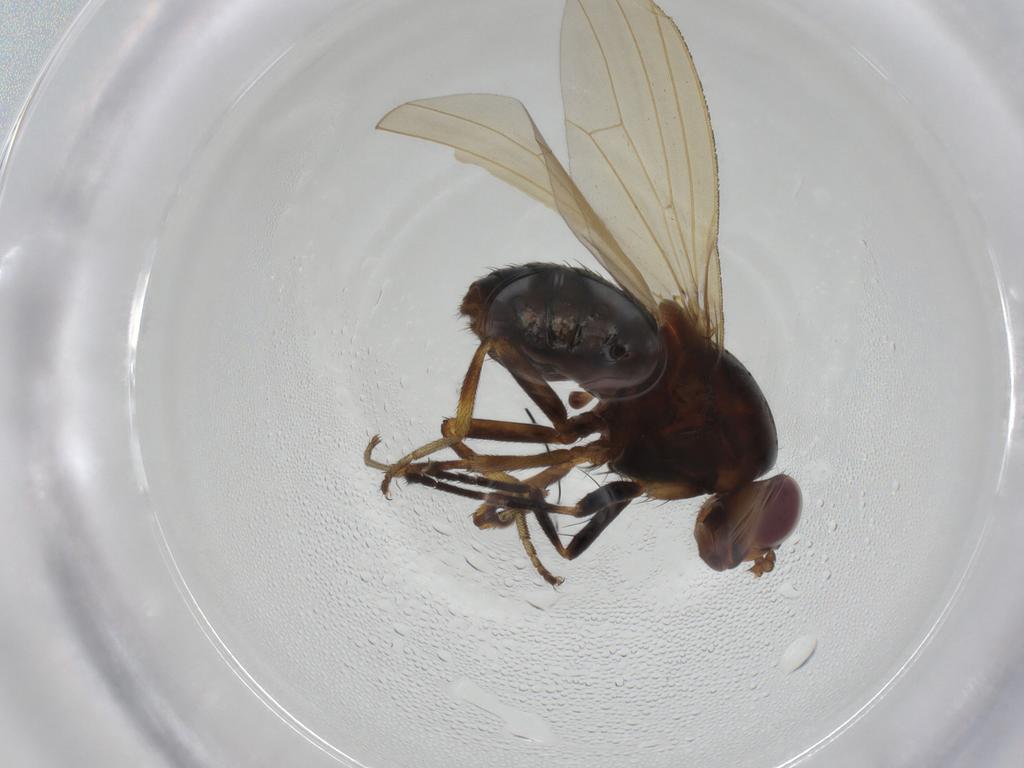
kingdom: Animalia
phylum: Arthropoda
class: Insecta
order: Diptera
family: Lauxaniidae
